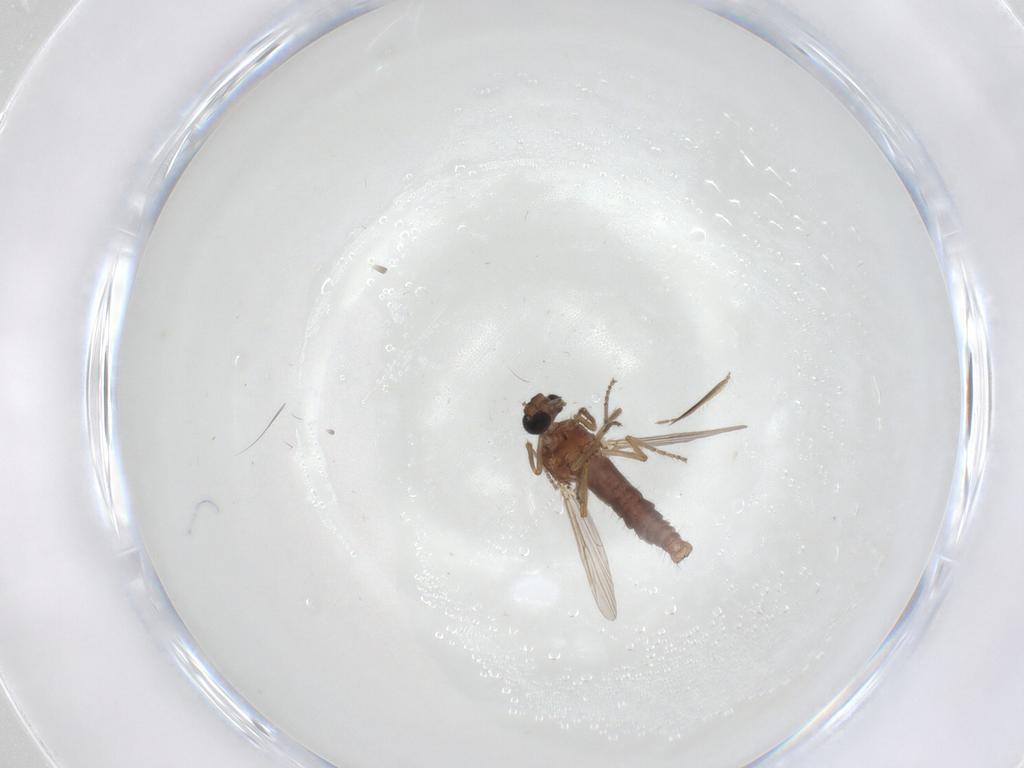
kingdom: Animalia
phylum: Arthropoda
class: Insecta
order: Diptera
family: Ceratopogonidae
